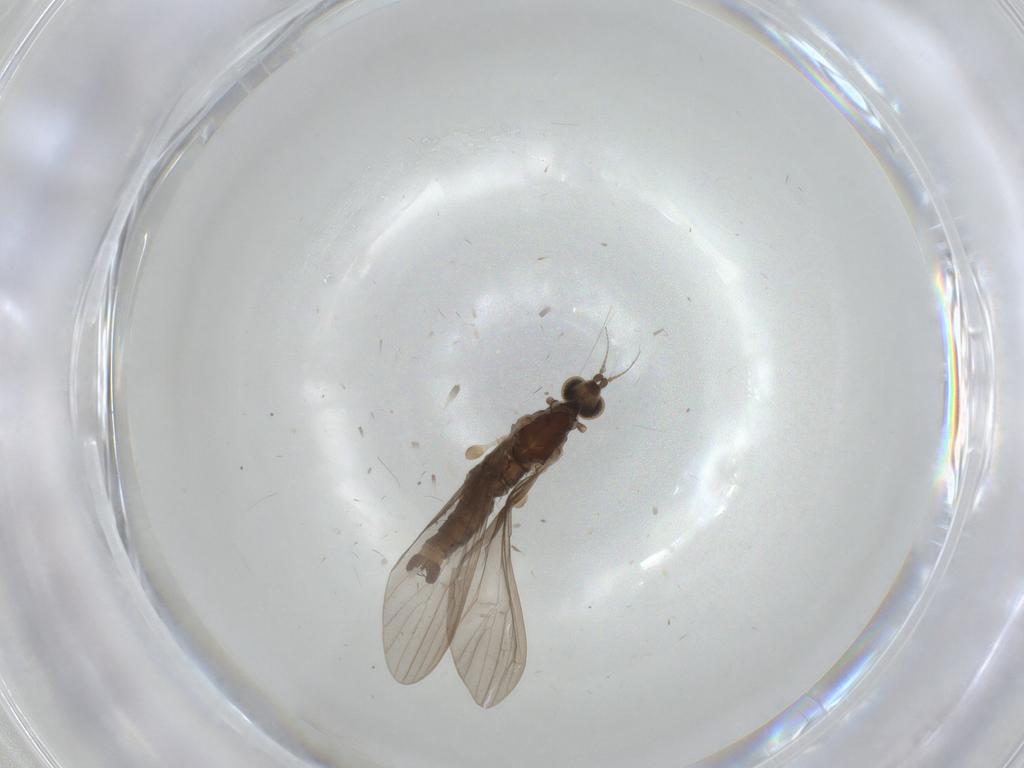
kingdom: Animalia
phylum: Arthropoda
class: Insecta
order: Diptera
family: Limoniidae
